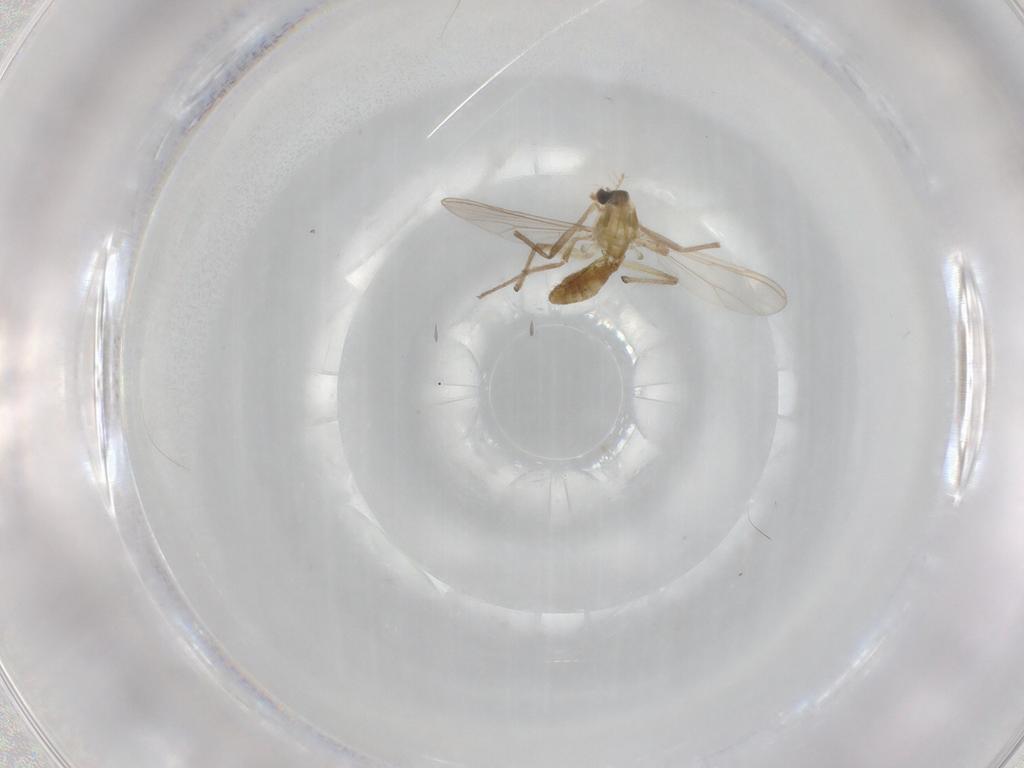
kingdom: Animalia
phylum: Arthropoda
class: Insecta
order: Diptera
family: Chironomidae
